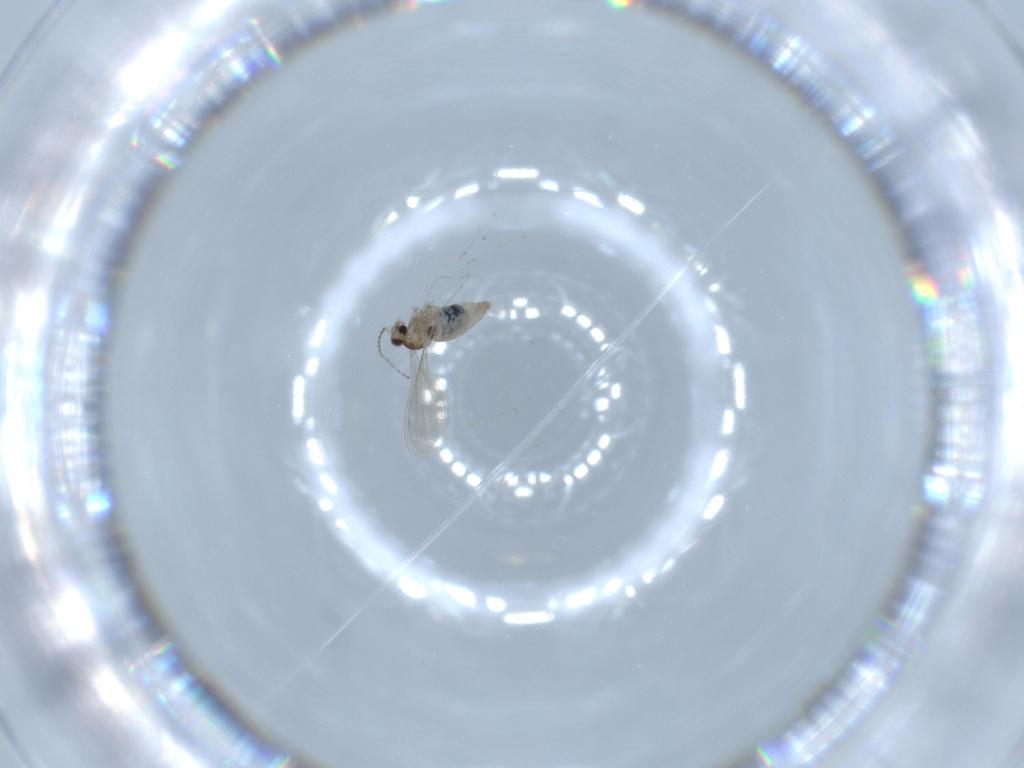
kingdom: Animalia
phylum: Arthropoda
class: Insecta
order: Diptera
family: Cecidomyiidae
